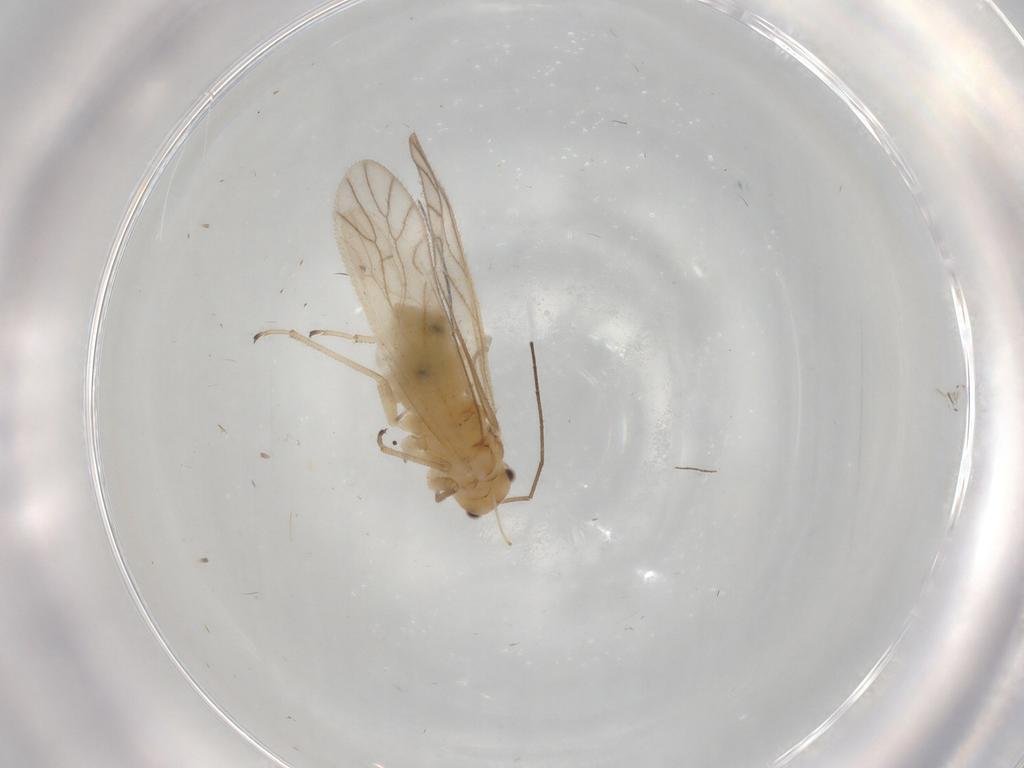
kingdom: Animalia
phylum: Arthropoda
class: Insecta
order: Psocodea
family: Caeciliusidae
